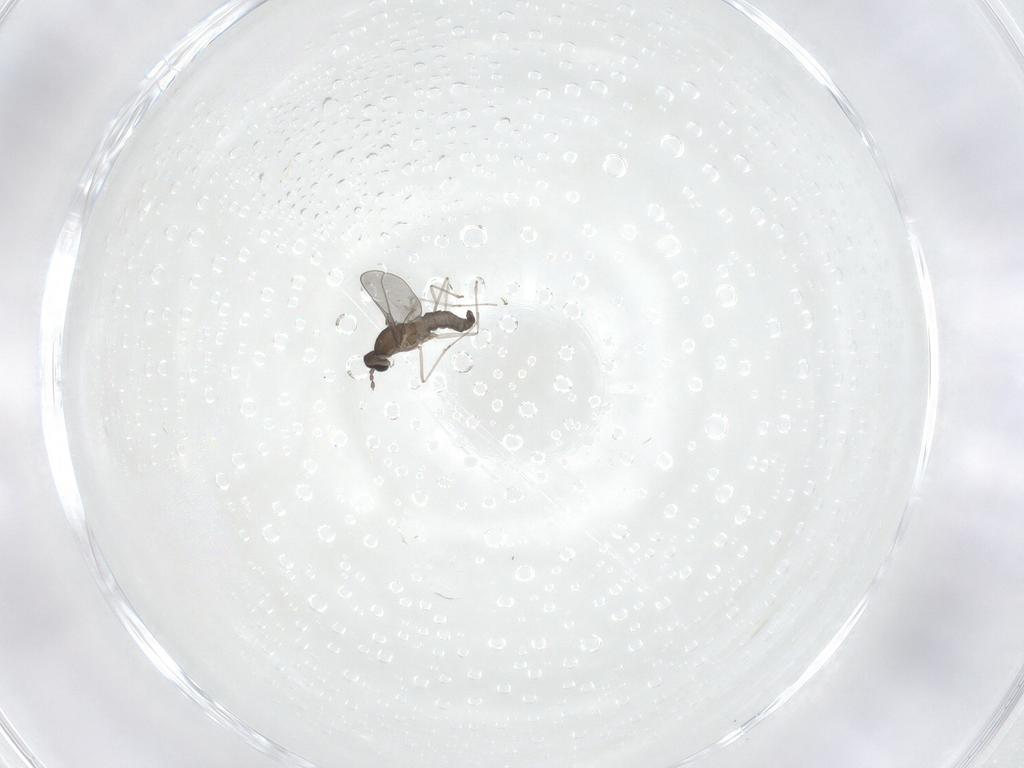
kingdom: Animalia
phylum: Arthropoda
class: Insecta
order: Diptera
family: Cecidomyiidae
